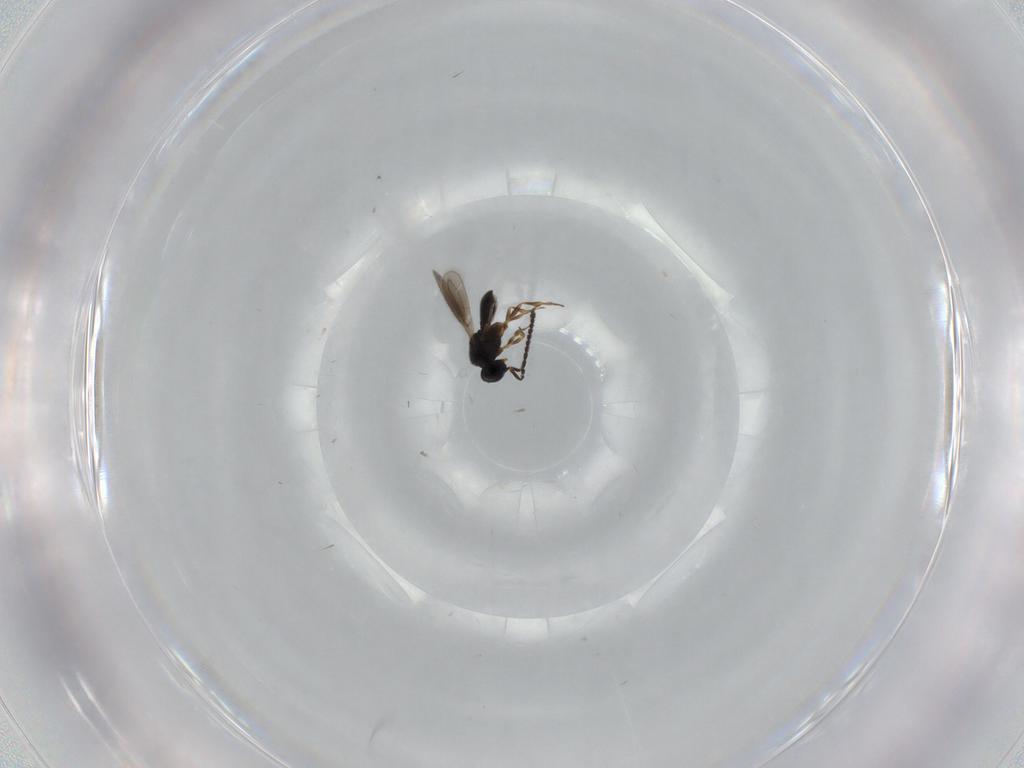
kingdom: Animalia
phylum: Arthropoda
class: Insecta
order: Hymenoptera
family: Scelionidae
